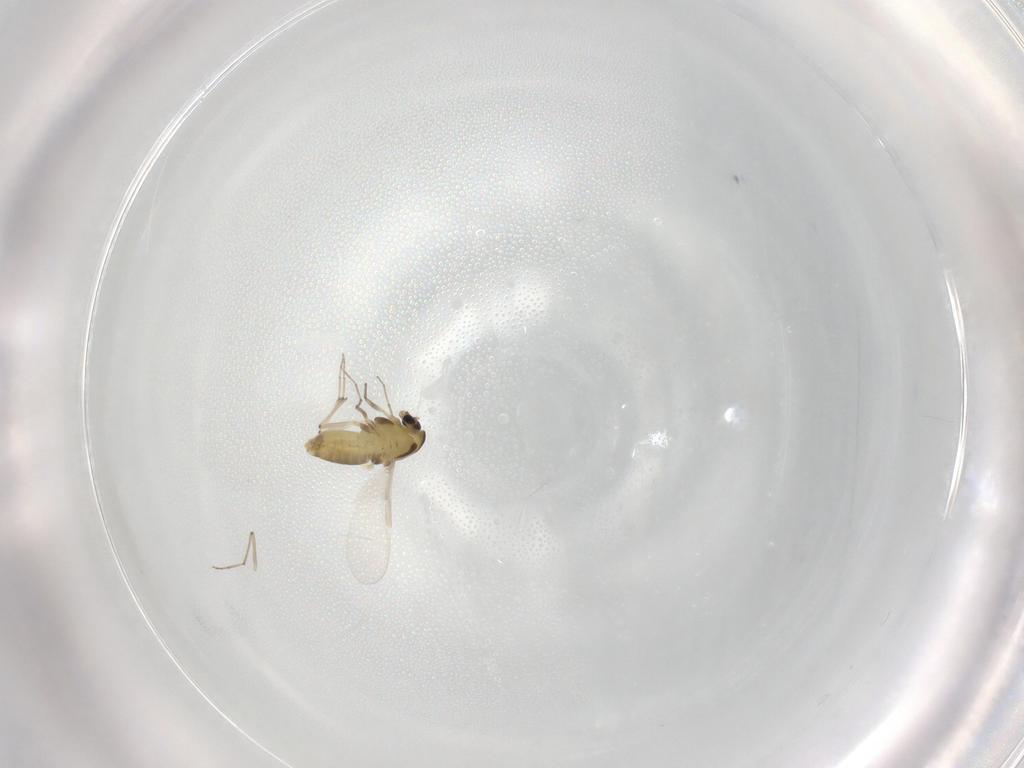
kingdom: Animalia
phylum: Arthropoda
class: Insecta
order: Diptera
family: Chironomidae
